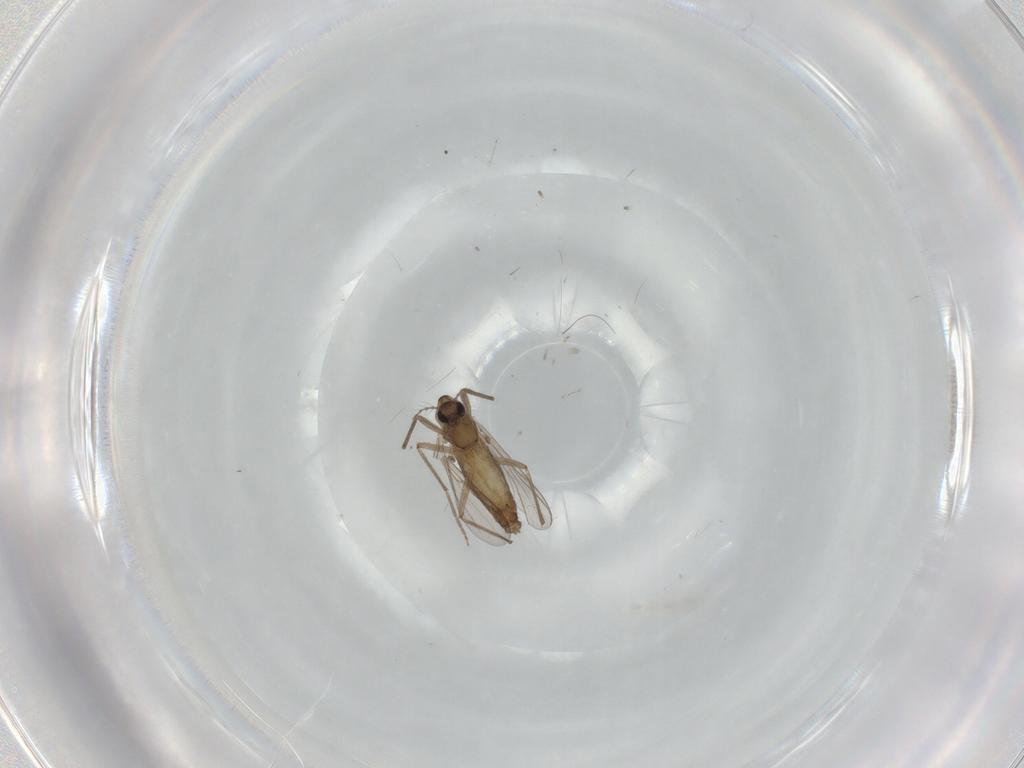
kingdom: Animalia
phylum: Arthropoda
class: Insecta
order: Diptera
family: Chironomidae
